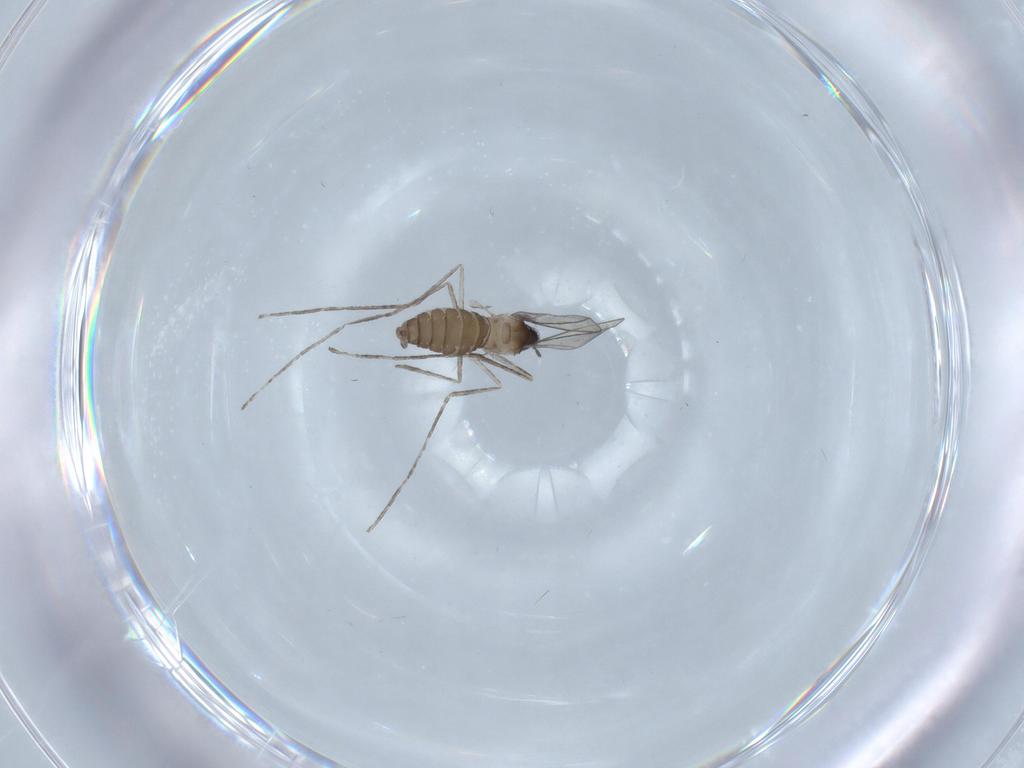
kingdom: Animalia
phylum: Arthropoda
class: Insecta
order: Diptera
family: Cecidomyiidae
